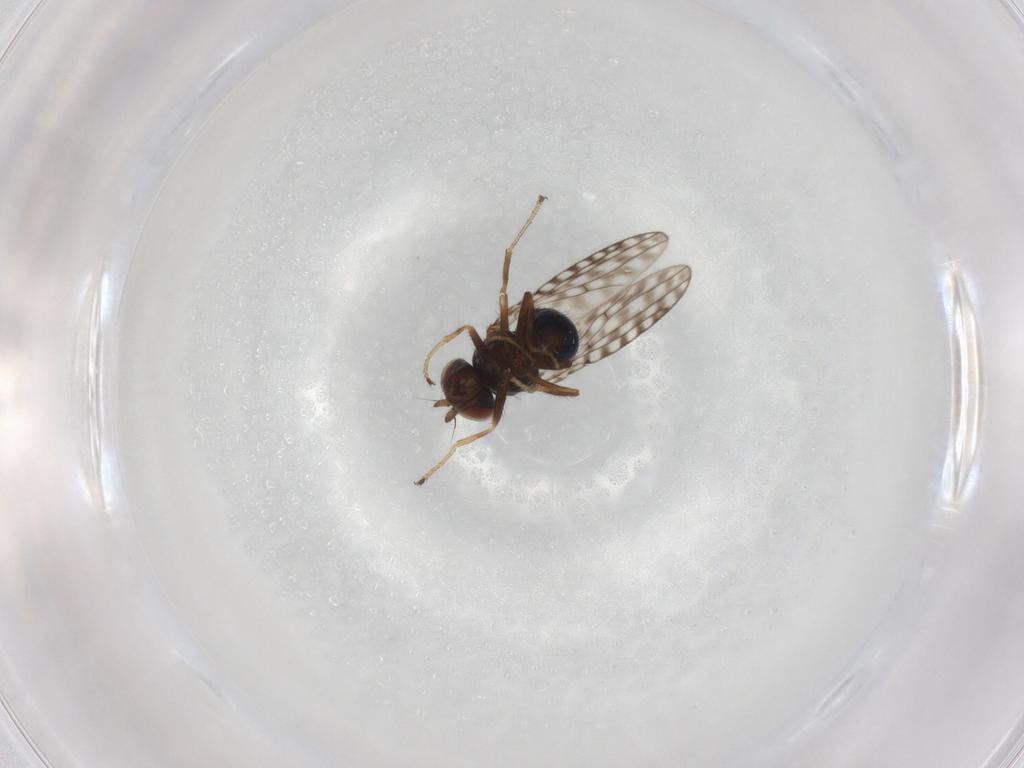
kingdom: Animalia
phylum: Arthropoda
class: Insecta
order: Diptera
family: Ephydridae
